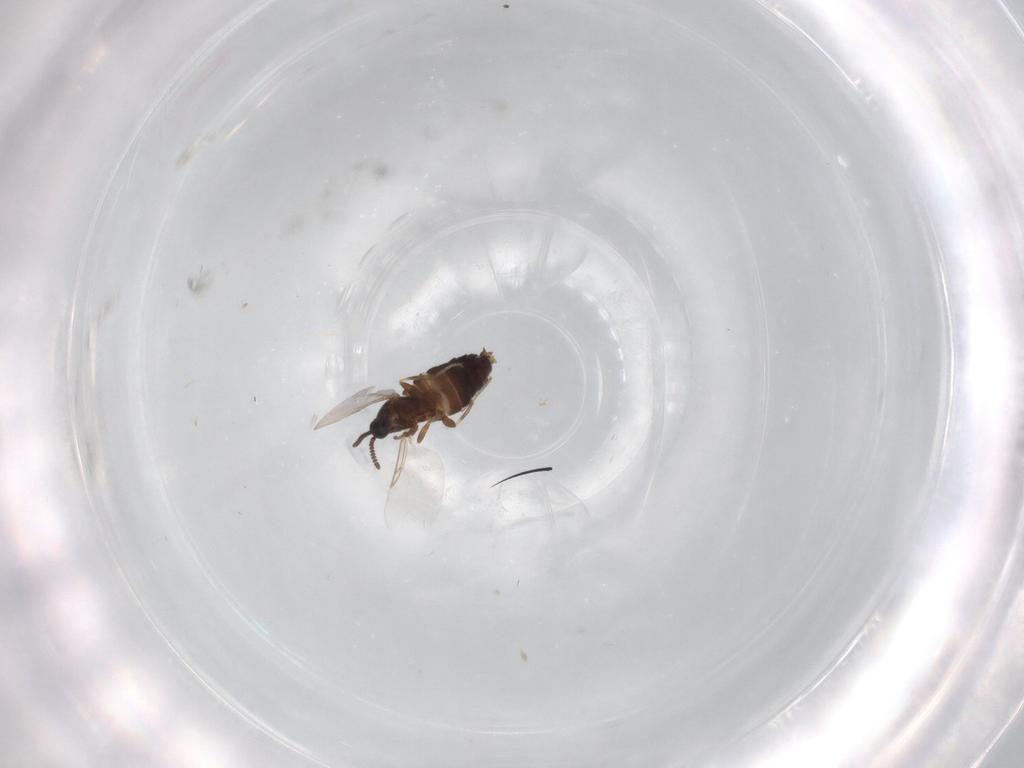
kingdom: Animalia
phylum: Arthropoda
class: Insecta
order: Diptera
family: Scatopsidae
